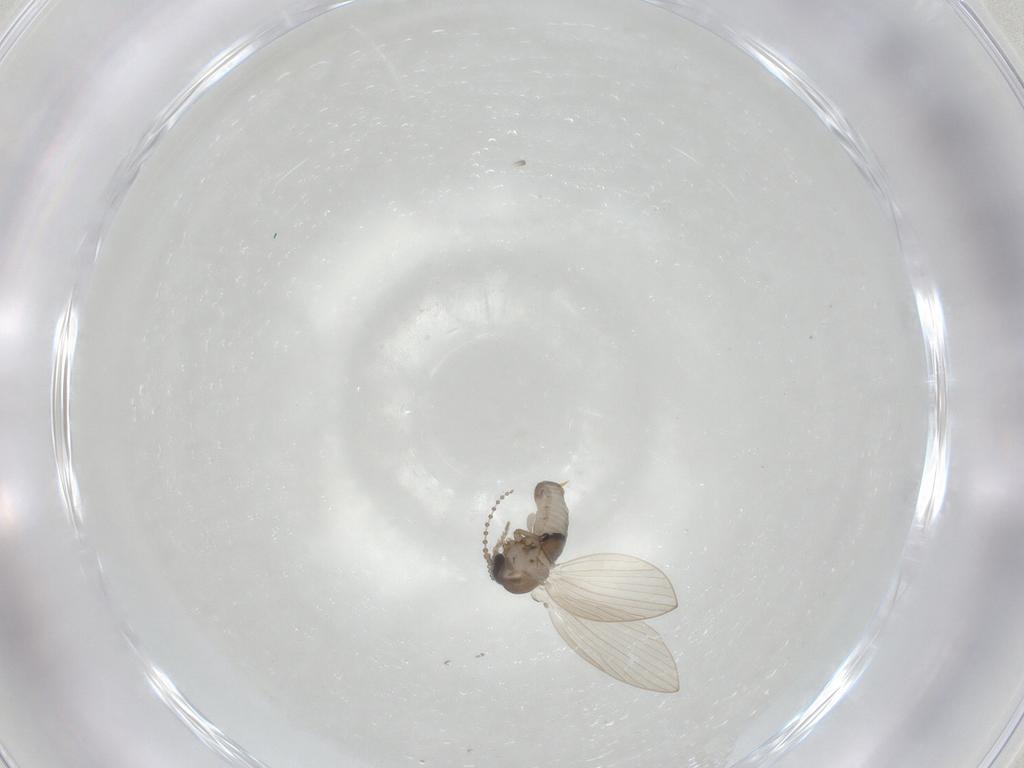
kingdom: Animalia
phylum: Arthropoda
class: Insecta
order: Diptera
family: Psychodidae
